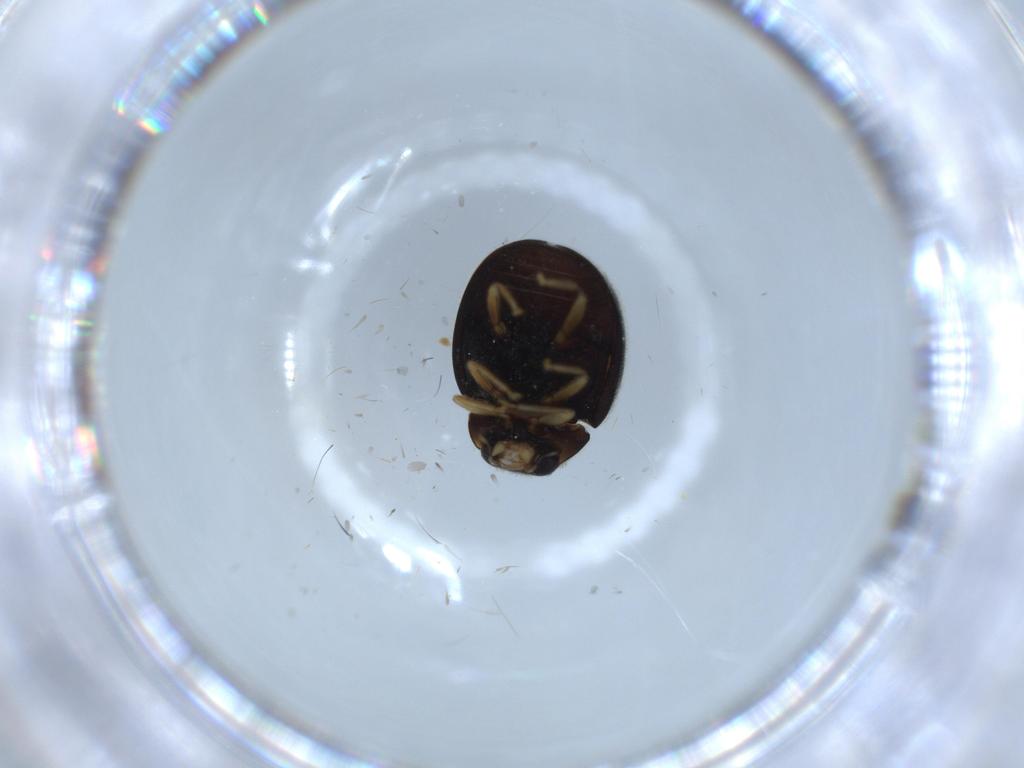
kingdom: Animalia
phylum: Arthropoda
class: Insecta
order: Coleoptera
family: Coccinellidae
